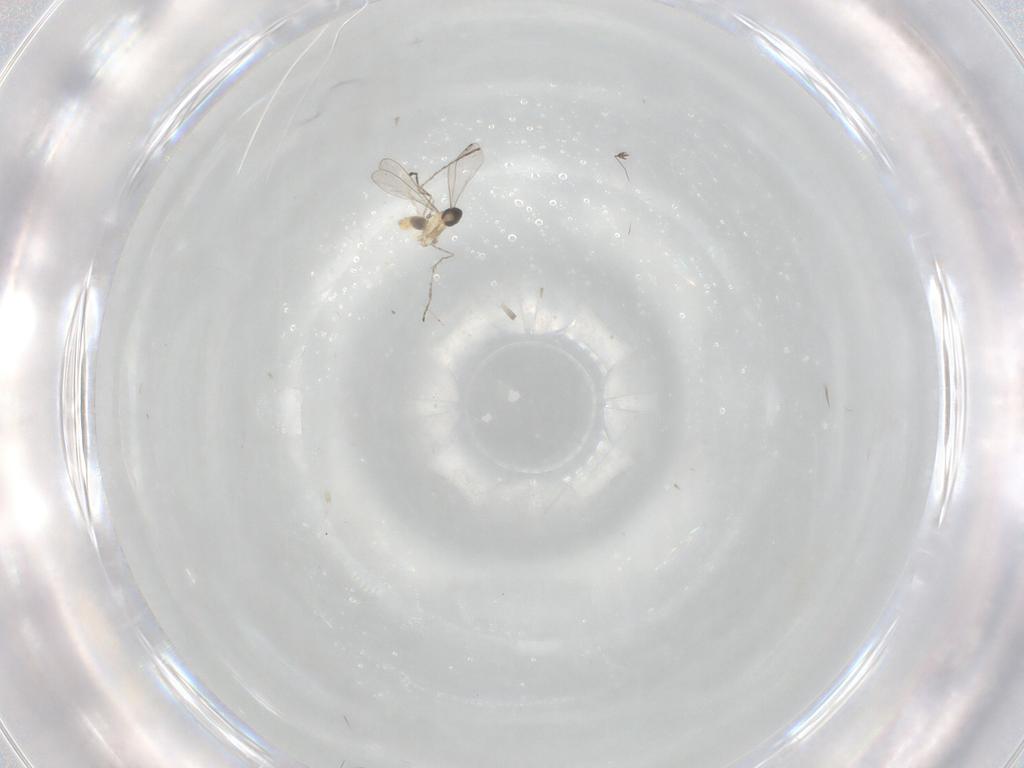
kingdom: Animalia
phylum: Arthropoda
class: Insecta
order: Diptera
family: Cecidomyiidae
